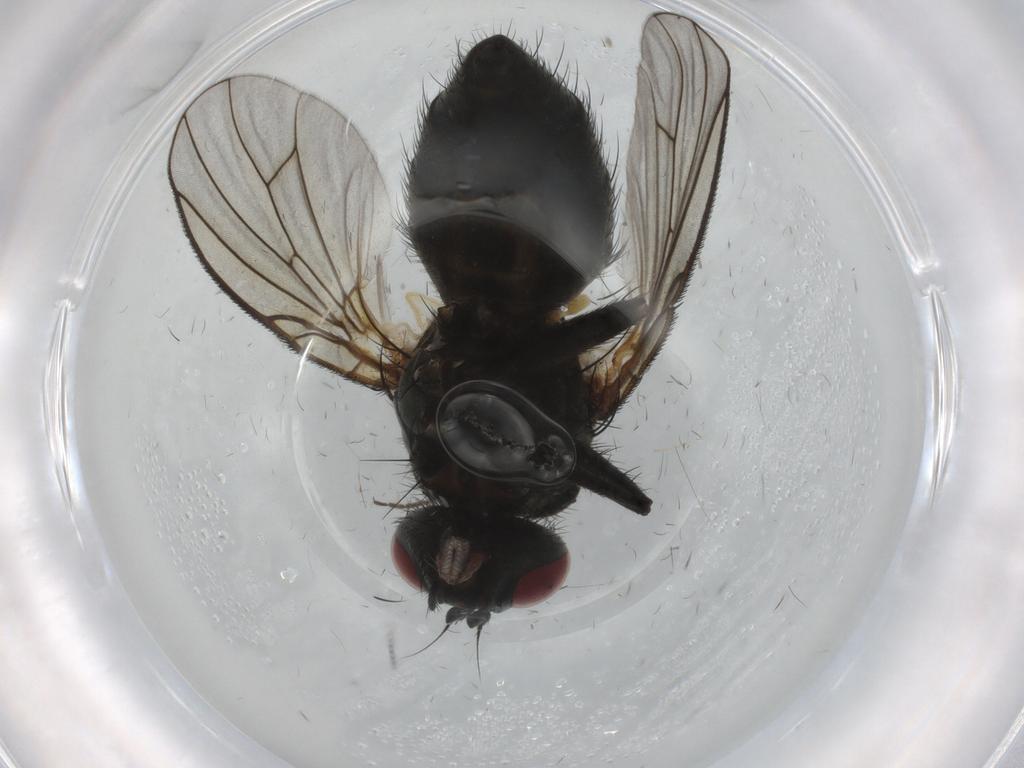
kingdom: Animalia
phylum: Arthropoda
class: Insecta
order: Diptera
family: Muscidae
